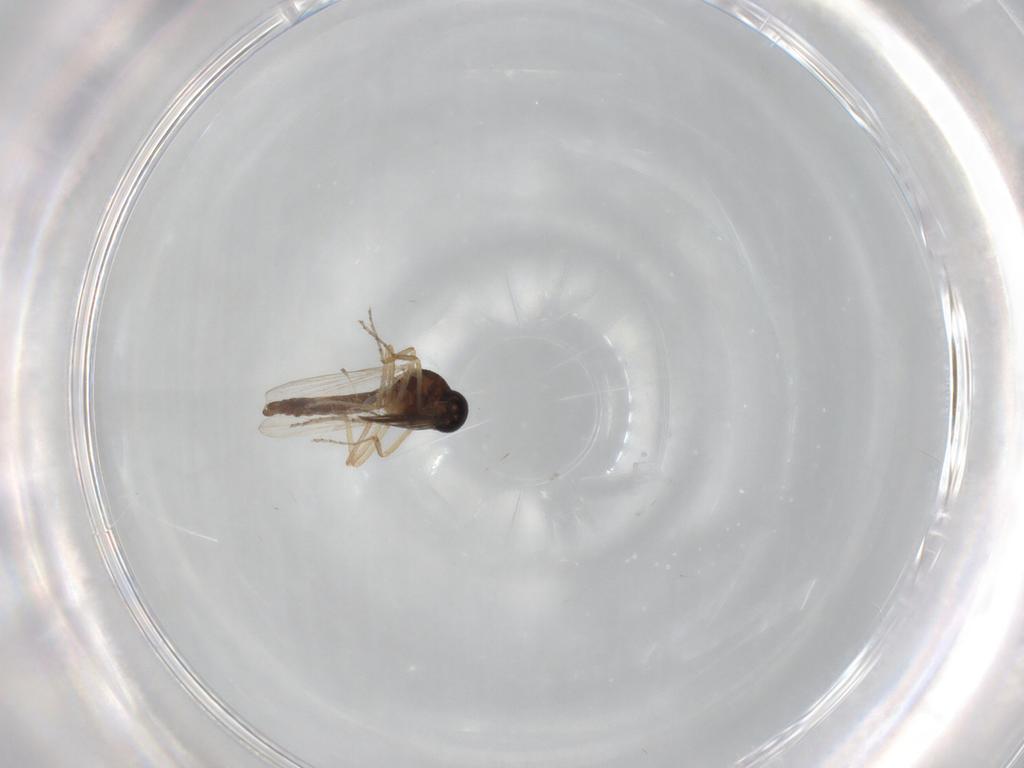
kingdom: Animalia
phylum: Arthropoda
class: Insecta
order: Diptera
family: Ceratopogonidae
